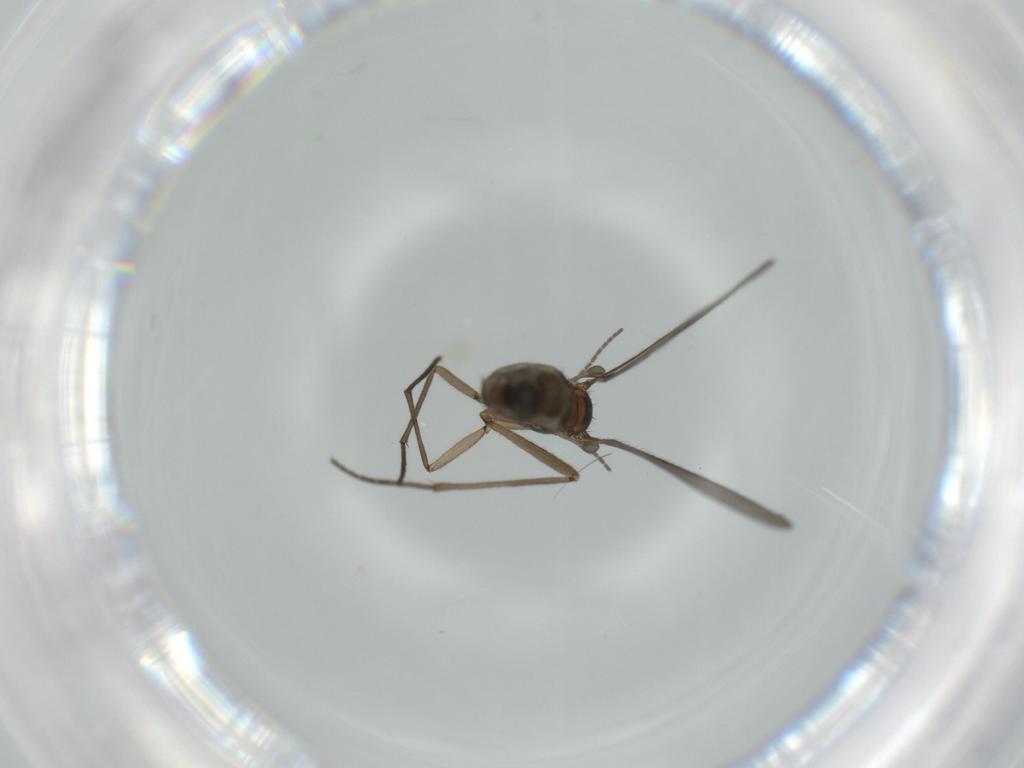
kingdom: Animalia
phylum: Arthropoda
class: Insecta
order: Diptera
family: Sciaridae
